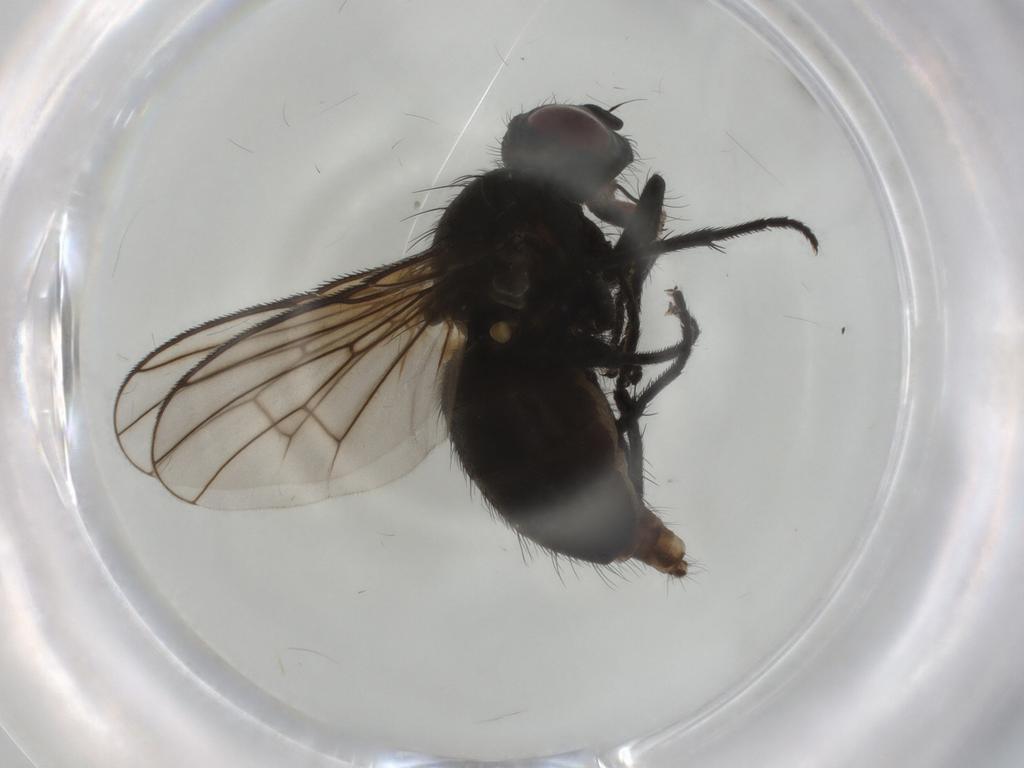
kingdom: Animalia
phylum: Arthropoda
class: Insecta
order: Diptera
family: Muscidae
